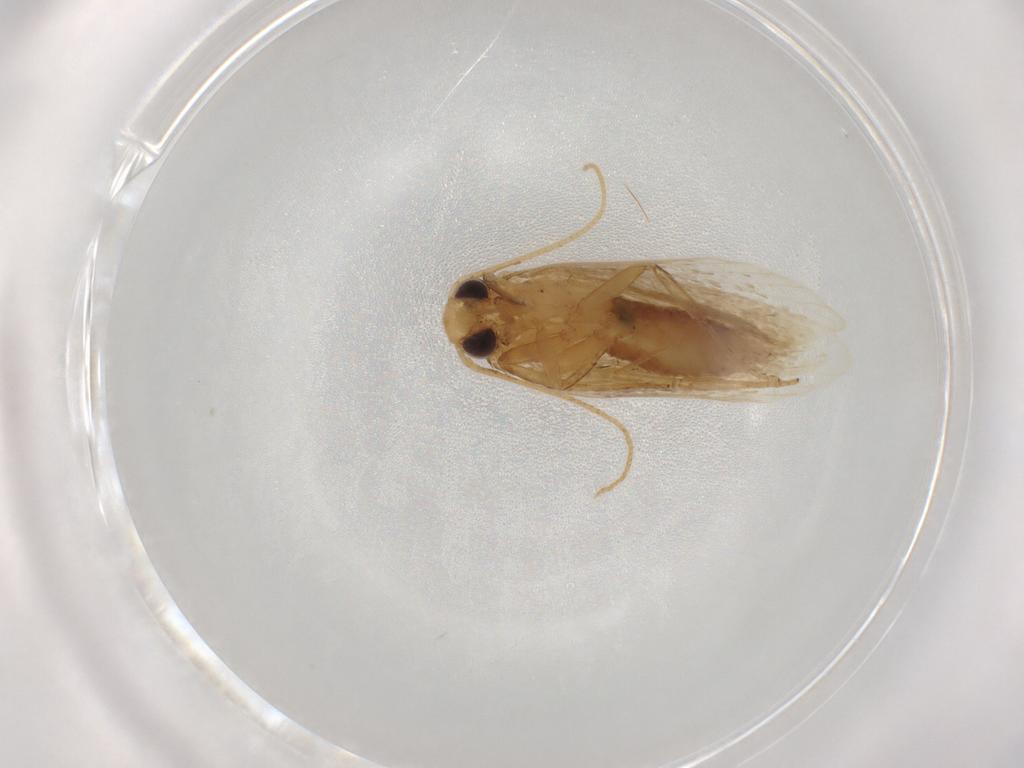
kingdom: Animalia
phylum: Arthropoda
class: Insecta
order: Lepidoptera
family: Depressariidae
